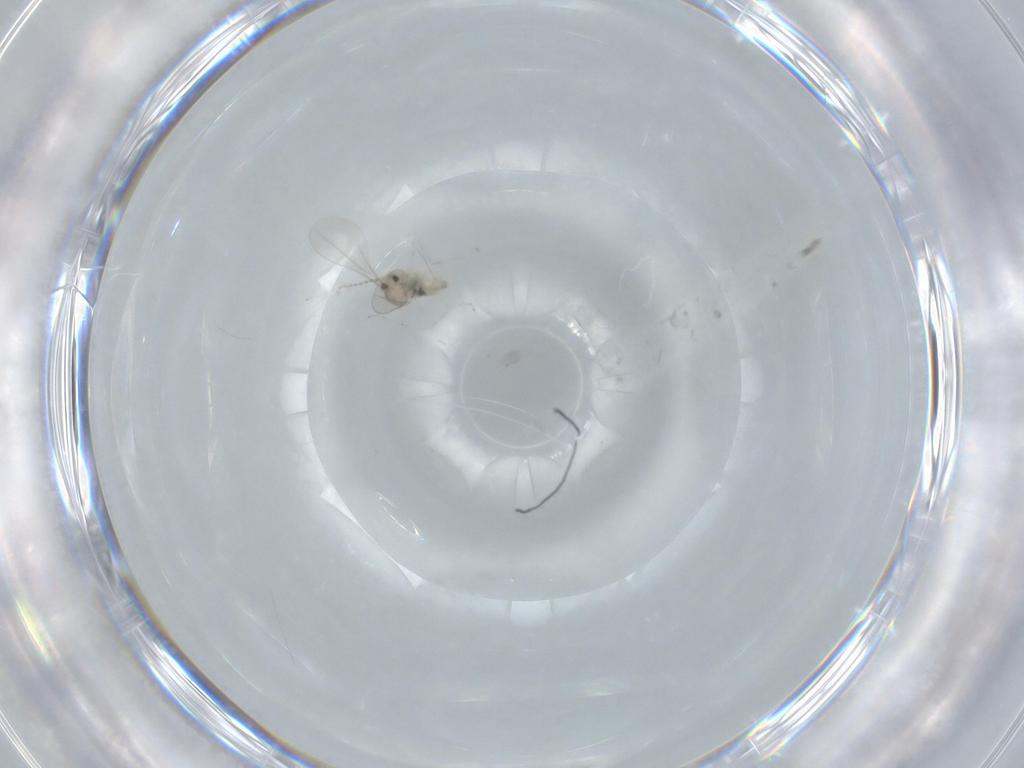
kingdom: Animalia
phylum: Arthropoda
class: Insecta
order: Diptera
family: Cecidomyiidae
